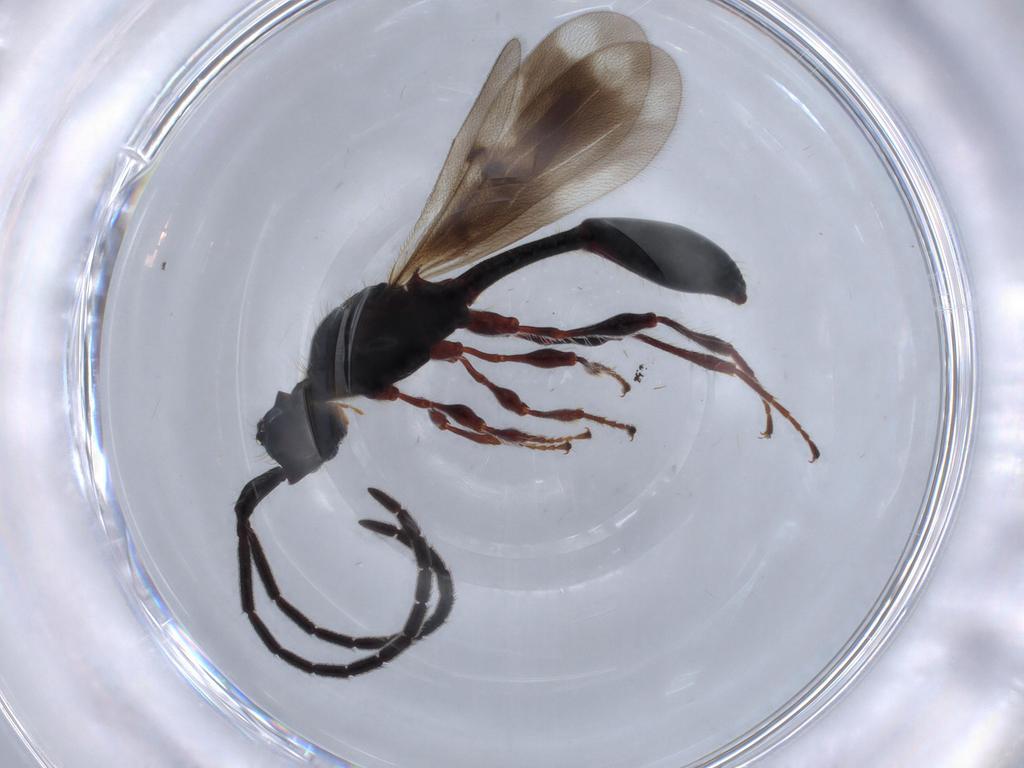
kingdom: Animalia
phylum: Arthropoda
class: Insecta
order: Hymenoptera
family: Diapriidae
